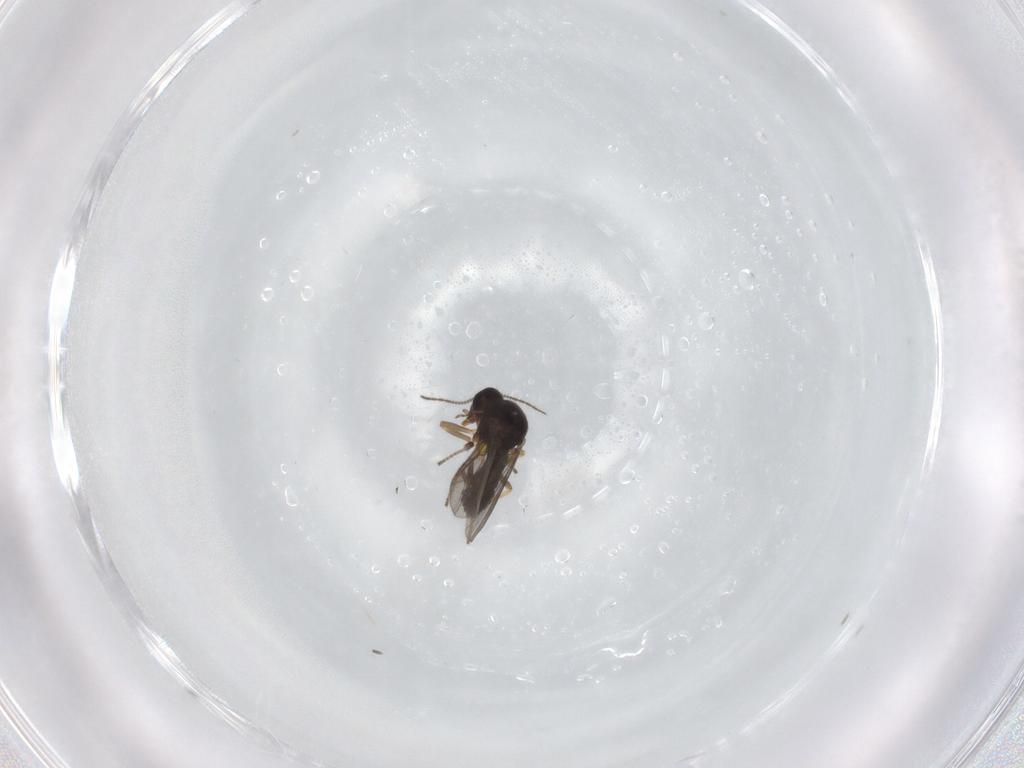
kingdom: Animalia
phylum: Arthropoda
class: Insecta
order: Diptera
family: Ceratopogonidae
